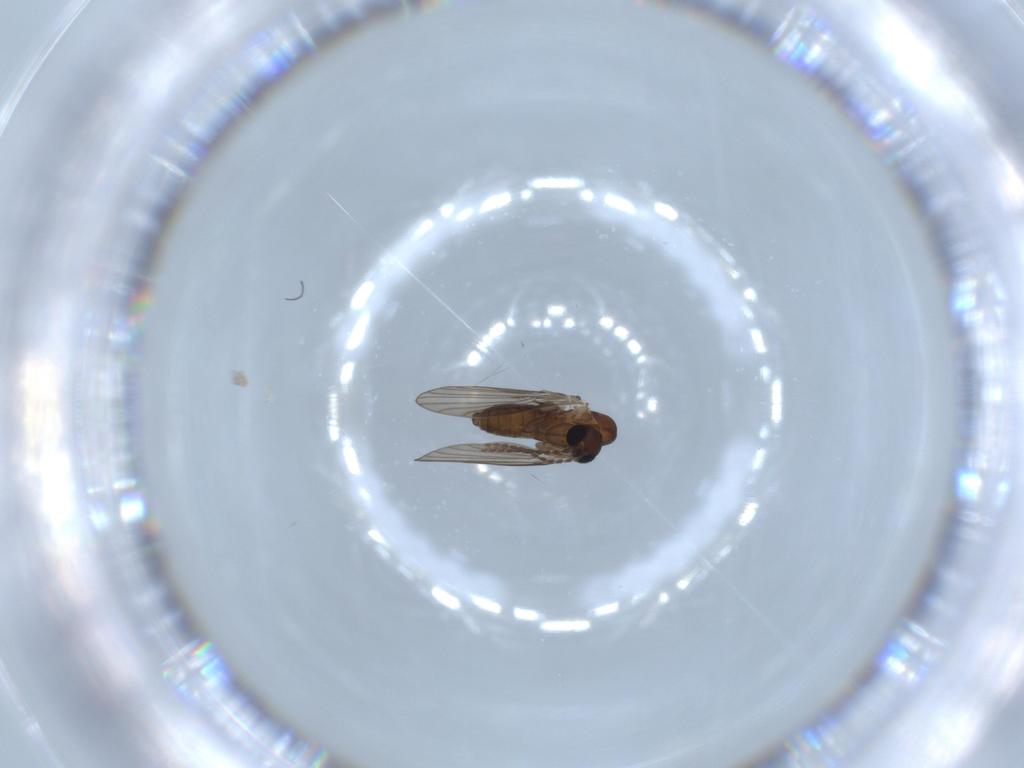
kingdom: Animalia
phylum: Arthropoda
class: Insecta
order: Diptera
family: Psychodidae
